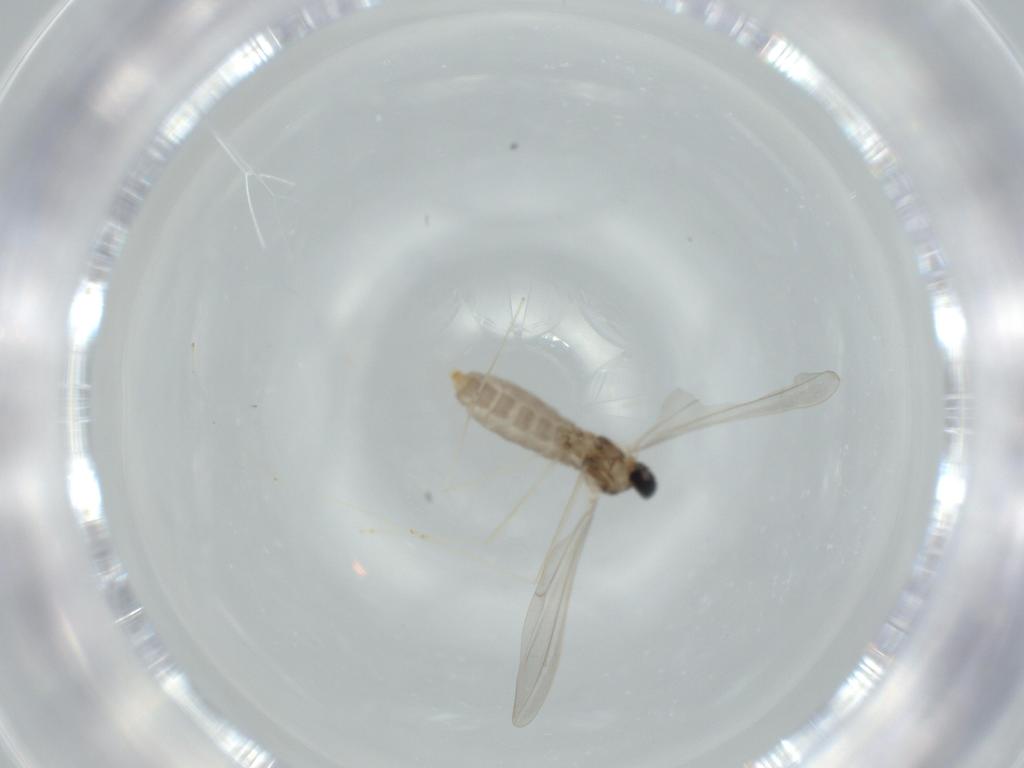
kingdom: Animalia
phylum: Arthropoda
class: Insecta
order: Diptera
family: Cecidomyiidae
